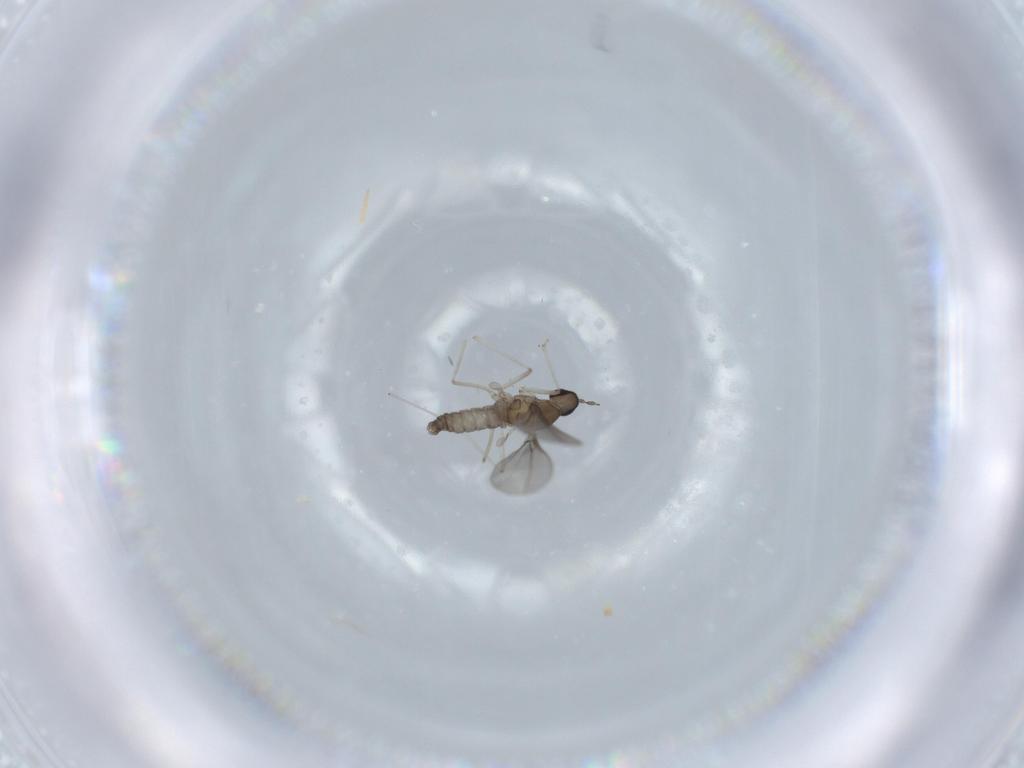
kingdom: Animalia
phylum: Arthropoda
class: Insecta
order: Diptera
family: Cecidomyiidae
